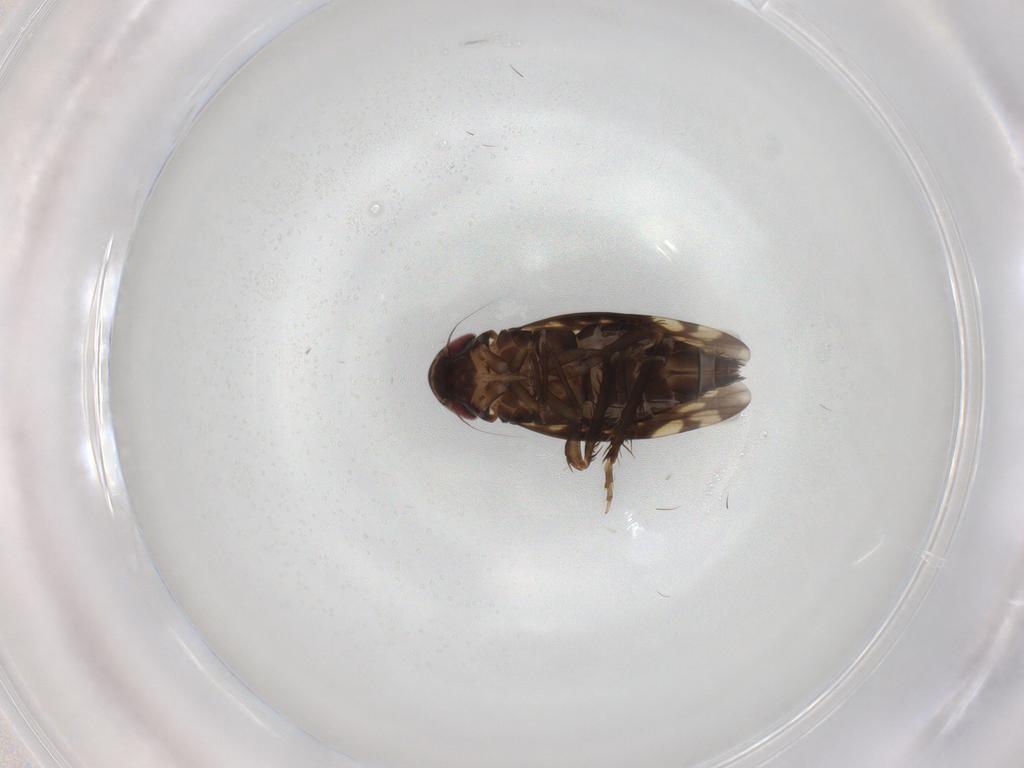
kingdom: Animalia
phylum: Arthropoda
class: Insecta
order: Hemiptera
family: Cicadellidae
